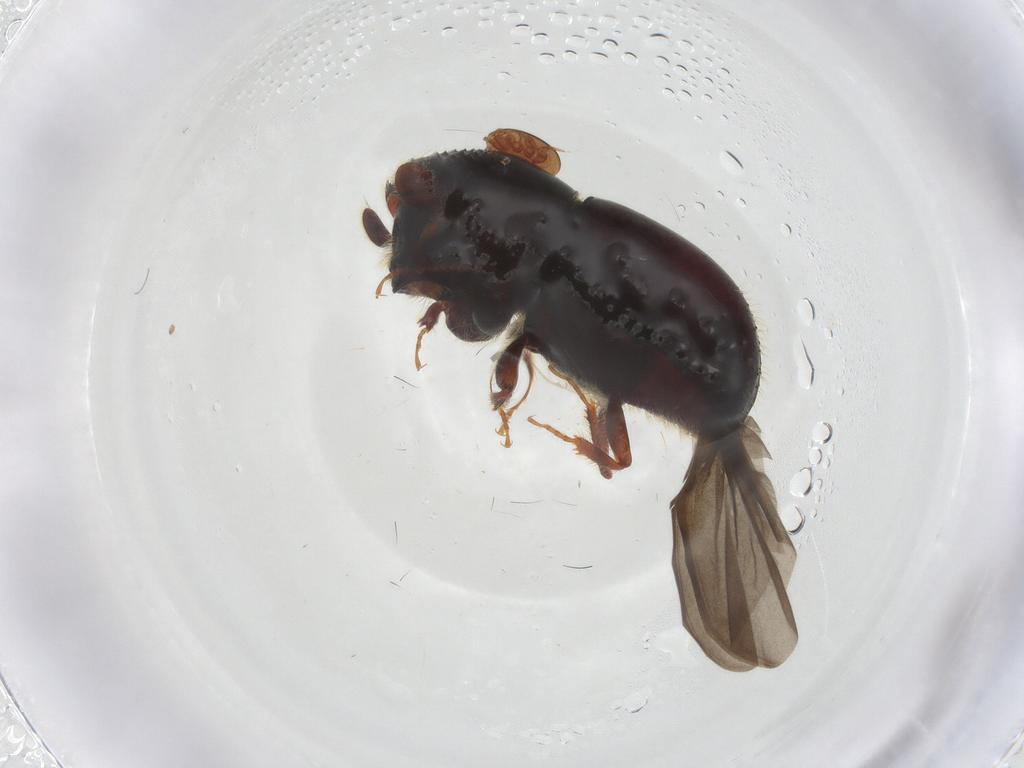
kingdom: Animalia
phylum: Arthropoda
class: Insecta
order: Coleoptera
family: Curculionidae
